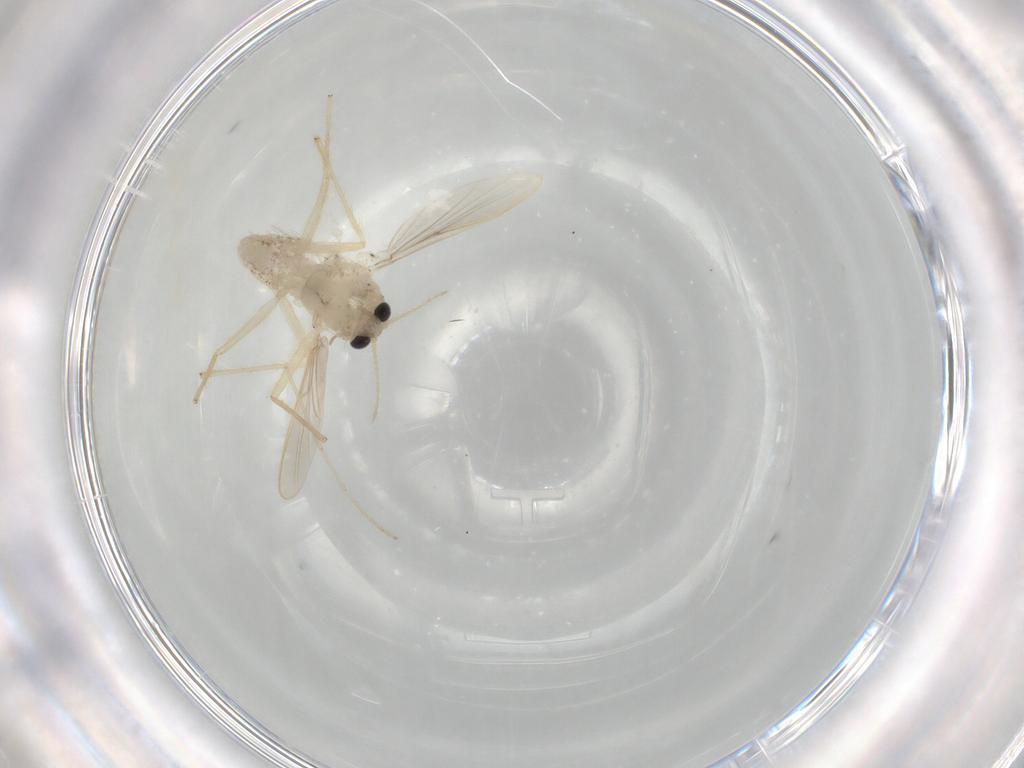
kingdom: Animalia
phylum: Arthropoda
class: Insecta
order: Diptera
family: Chironomidae
